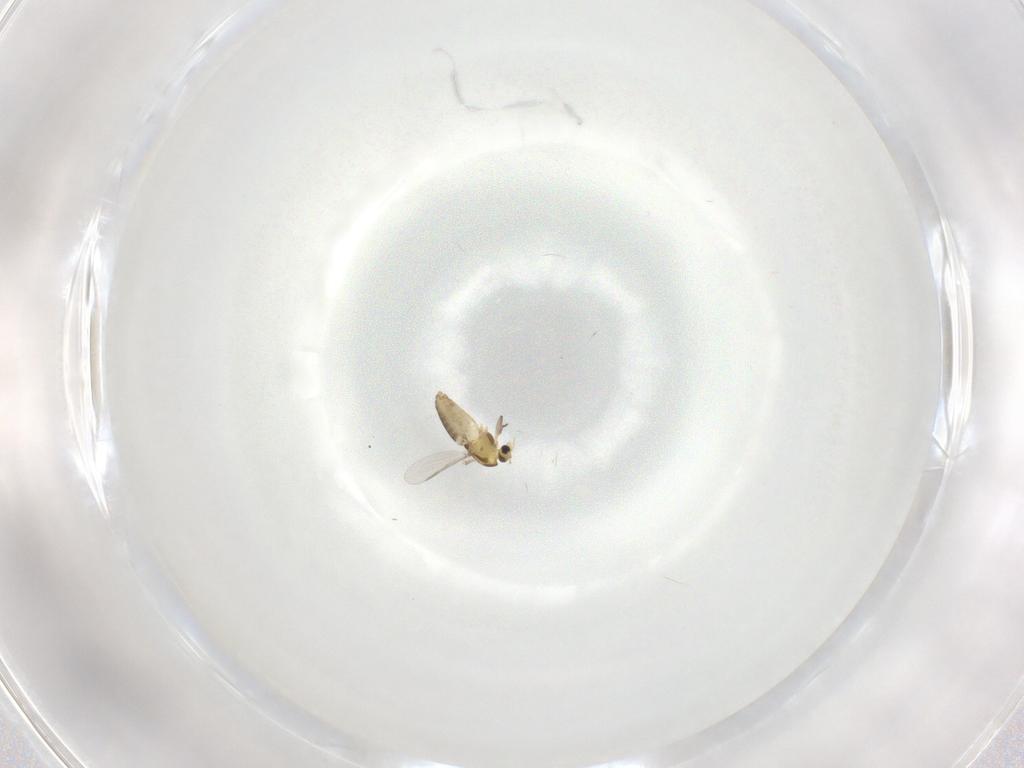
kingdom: Animalia
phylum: Arthropoda
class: Insecta
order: Diptera
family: Chironomidae
